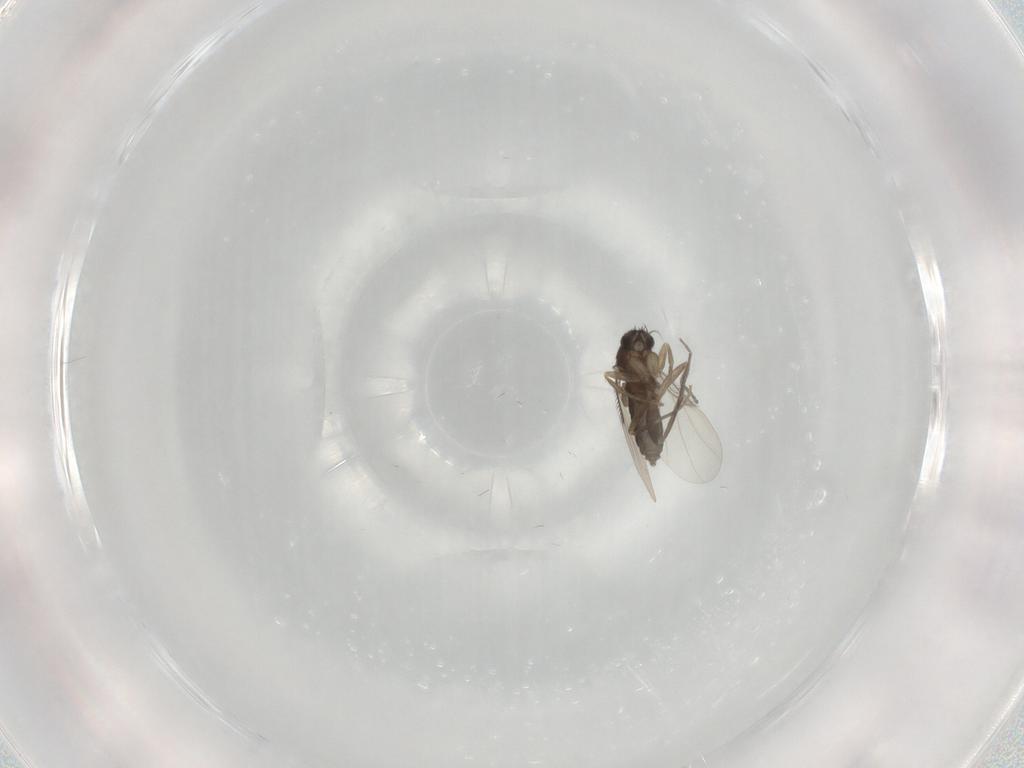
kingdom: Animalia
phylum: Arthropoda
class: Insecta
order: Diptera
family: Phoridae
